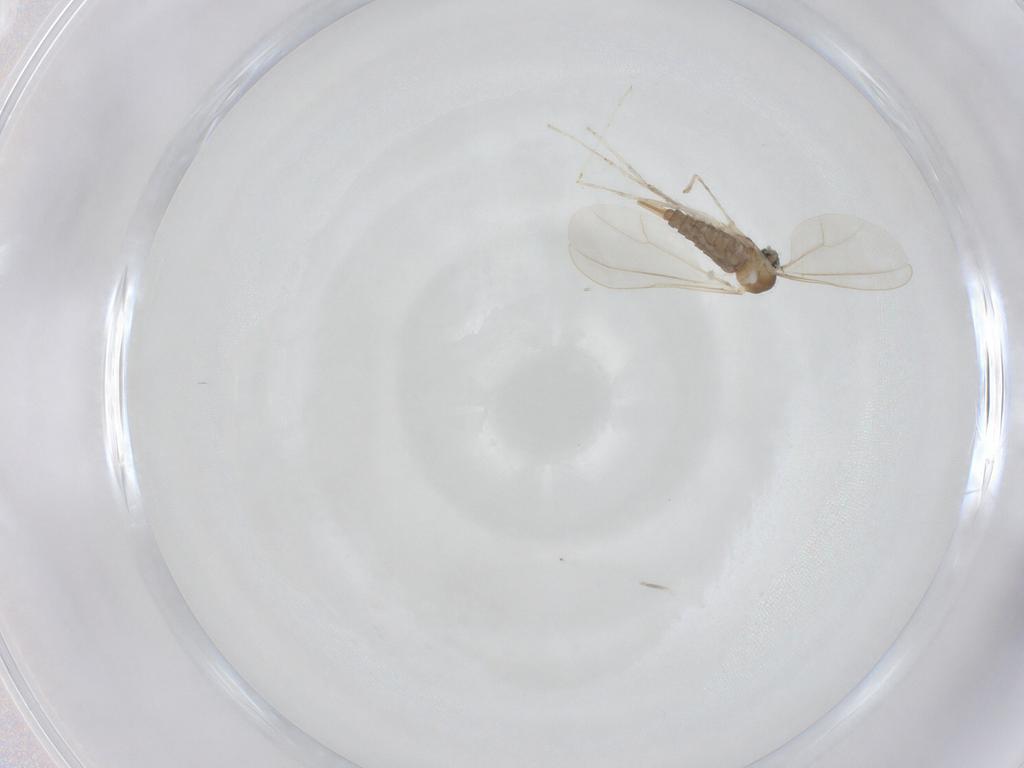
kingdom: Animalia
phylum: Arthropoda
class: Insecta
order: Diptera
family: Cecidomyiidae
